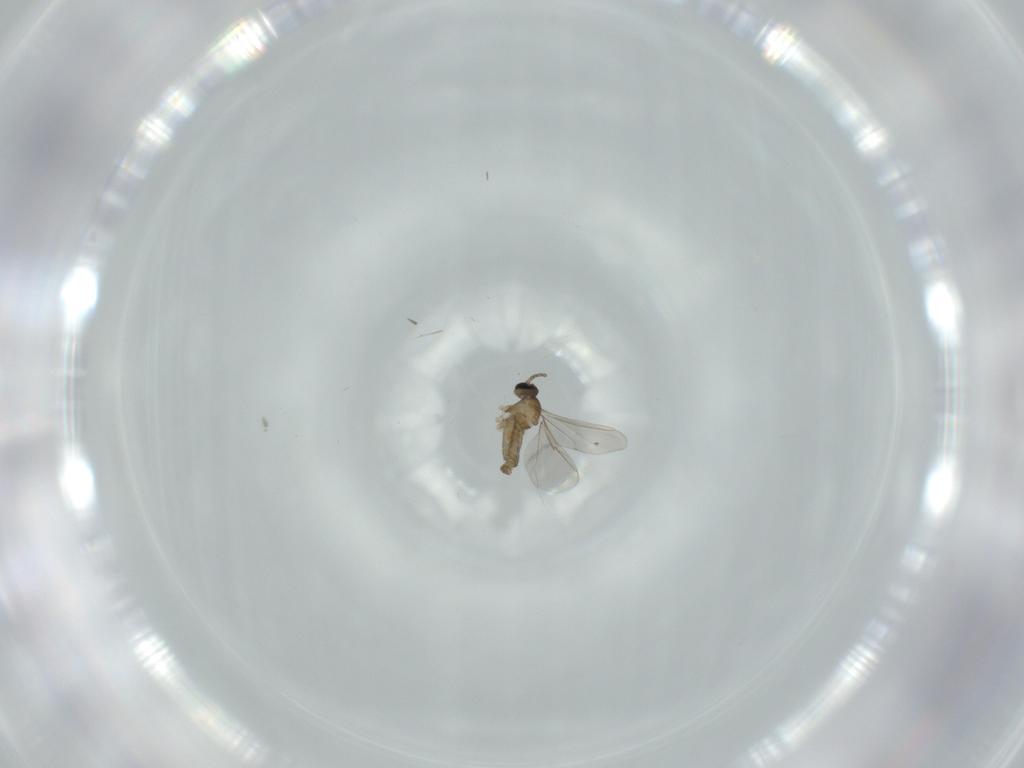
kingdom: Animalia
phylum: Arthropoda
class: Insecta
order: Diptera
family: Cecidomyiidae
